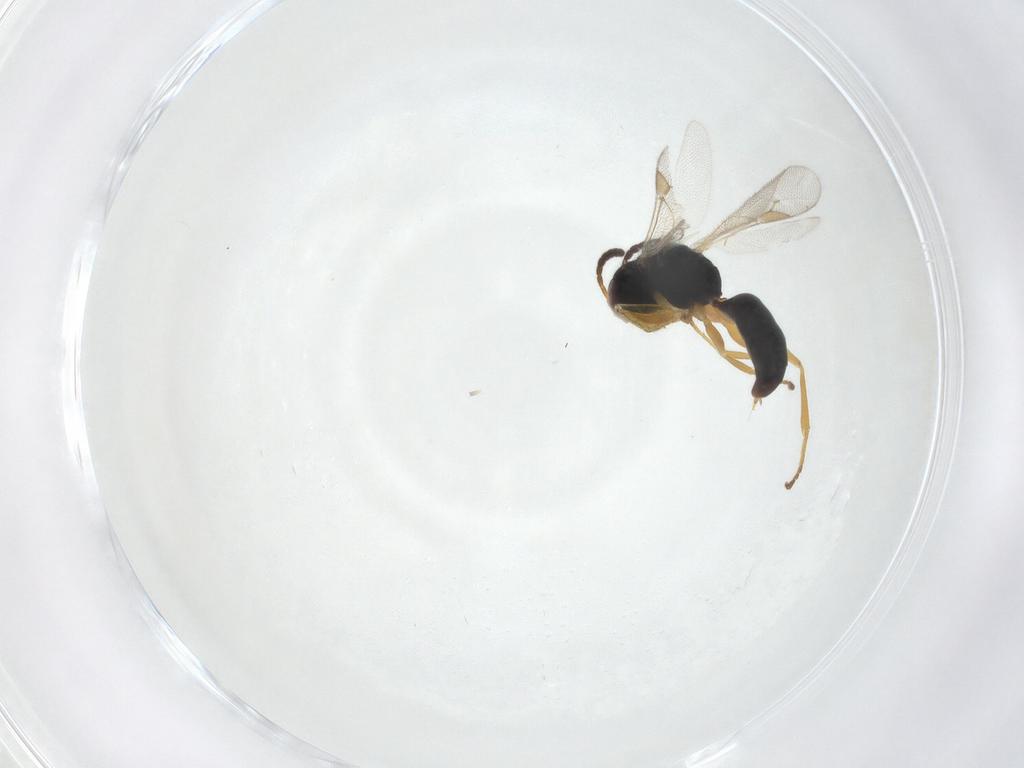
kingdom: Animalia
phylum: Arthropoda
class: Insecta
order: Hymenoptera
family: Dryinidae
